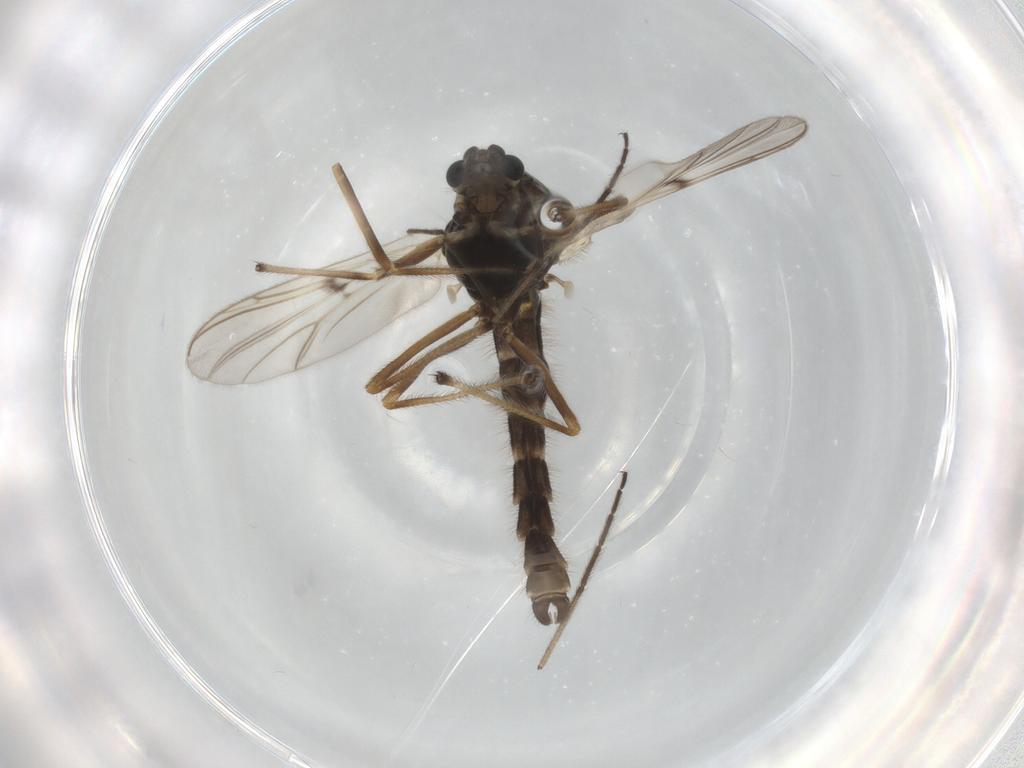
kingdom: Animalia
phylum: Arthropoda
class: Insecta
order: Diptera
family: Chironomidae
